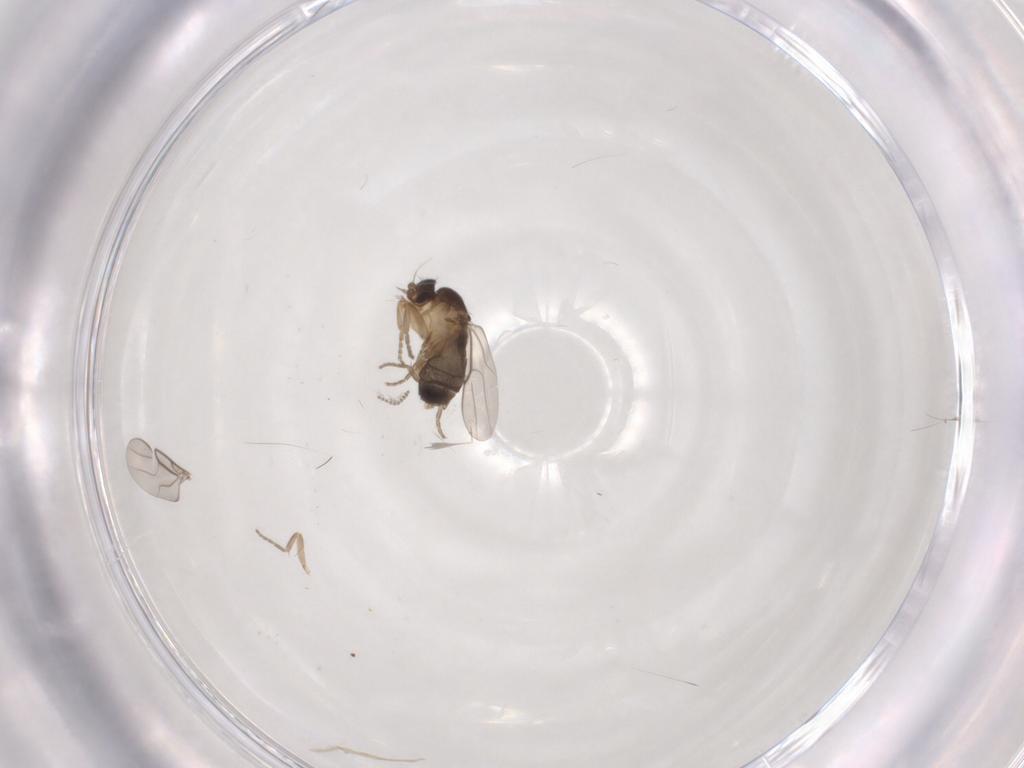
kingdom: Animalia
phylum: Arthropoda
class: Insecta
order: Diptera
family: Phoridae
